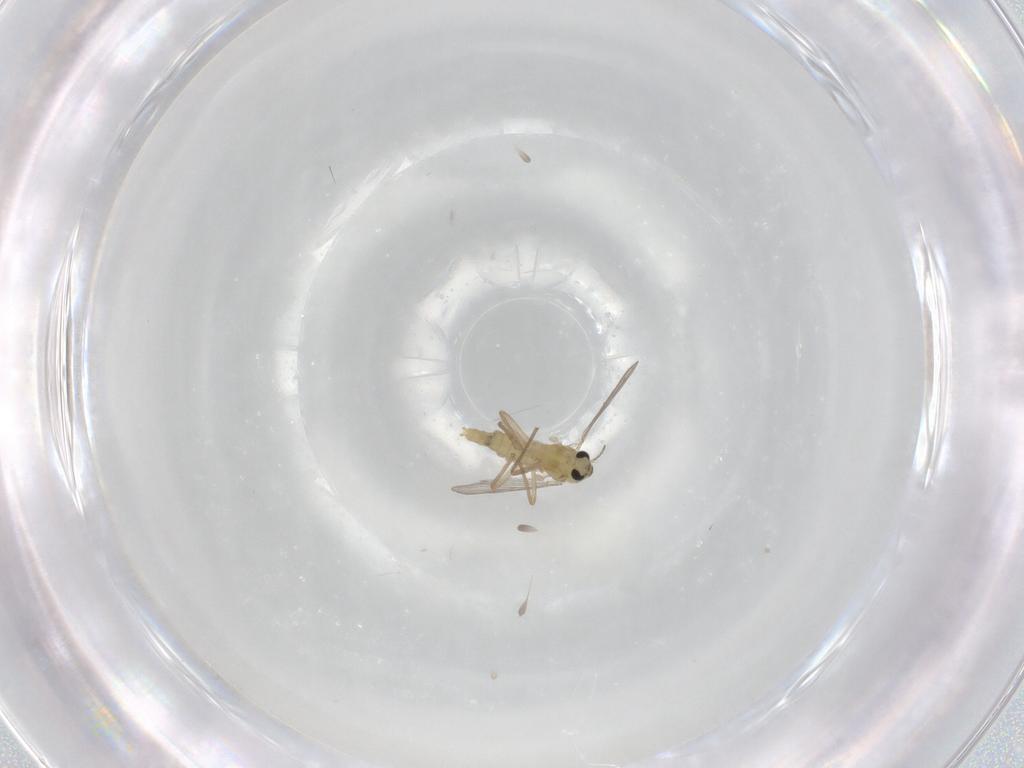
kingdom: Animalia
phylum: Arthropoda
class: Insecta
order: Diptera
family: Chironomidae
